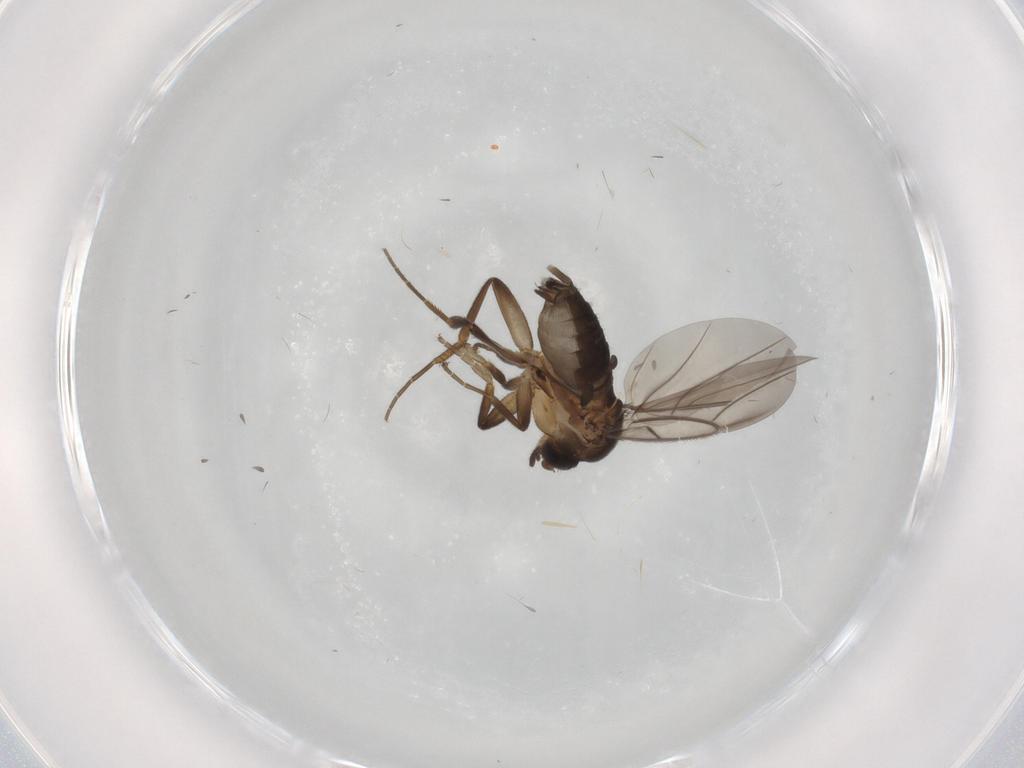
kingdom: Animalia
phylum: Arthropoda
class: Insecta
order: Diptera
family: Phoridae
